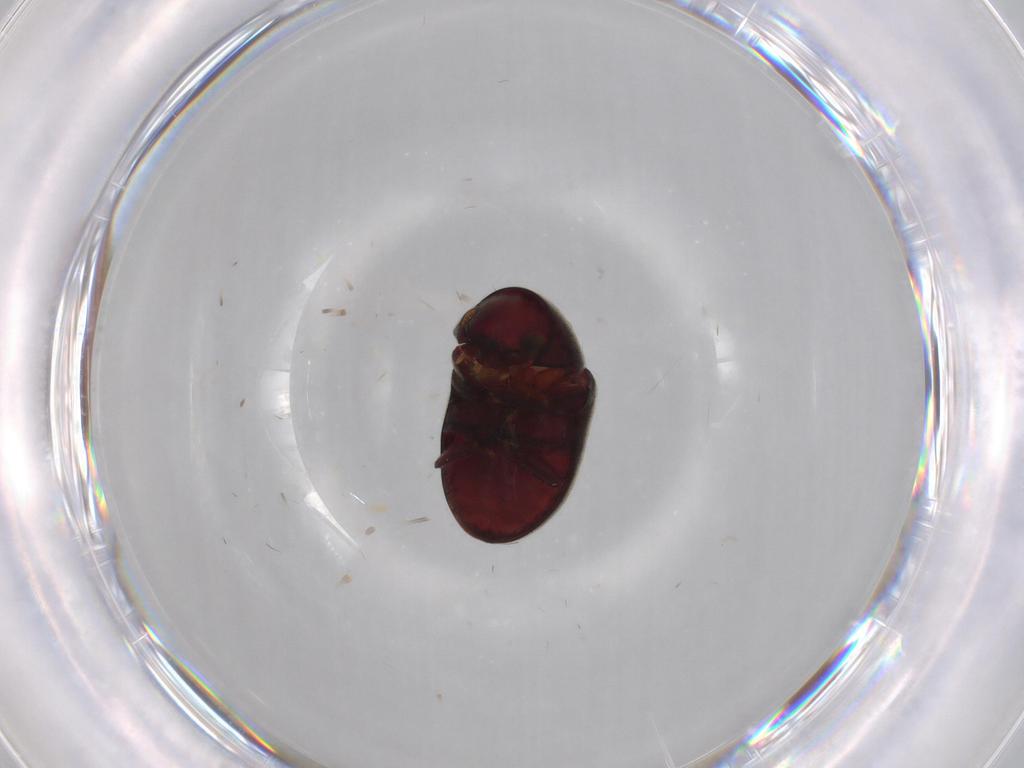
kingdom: Animalia
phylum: Arthropoda
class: Insecta
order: Coleoptera
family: Ptinidae
